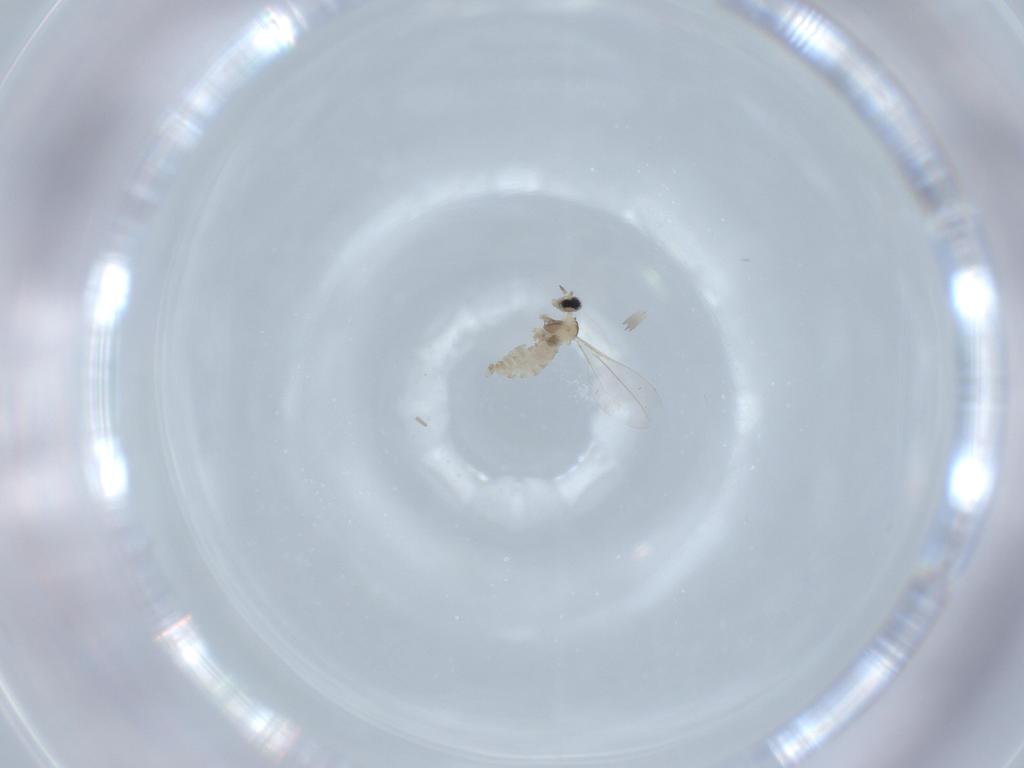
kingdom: Animalia
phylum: Arthropoda
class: Insecta
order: Diptera
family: Cecidomyiidae
